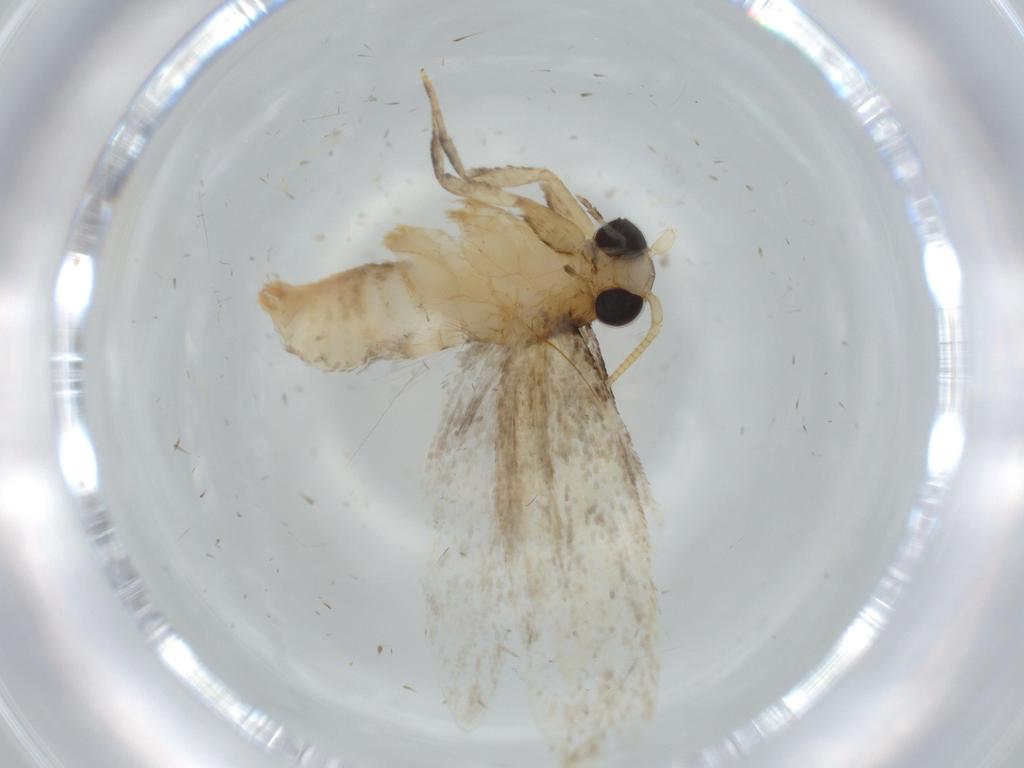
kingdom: Animalia
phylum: Arthropoda
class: Insecta
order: Lepidoptera
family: Tineidae
